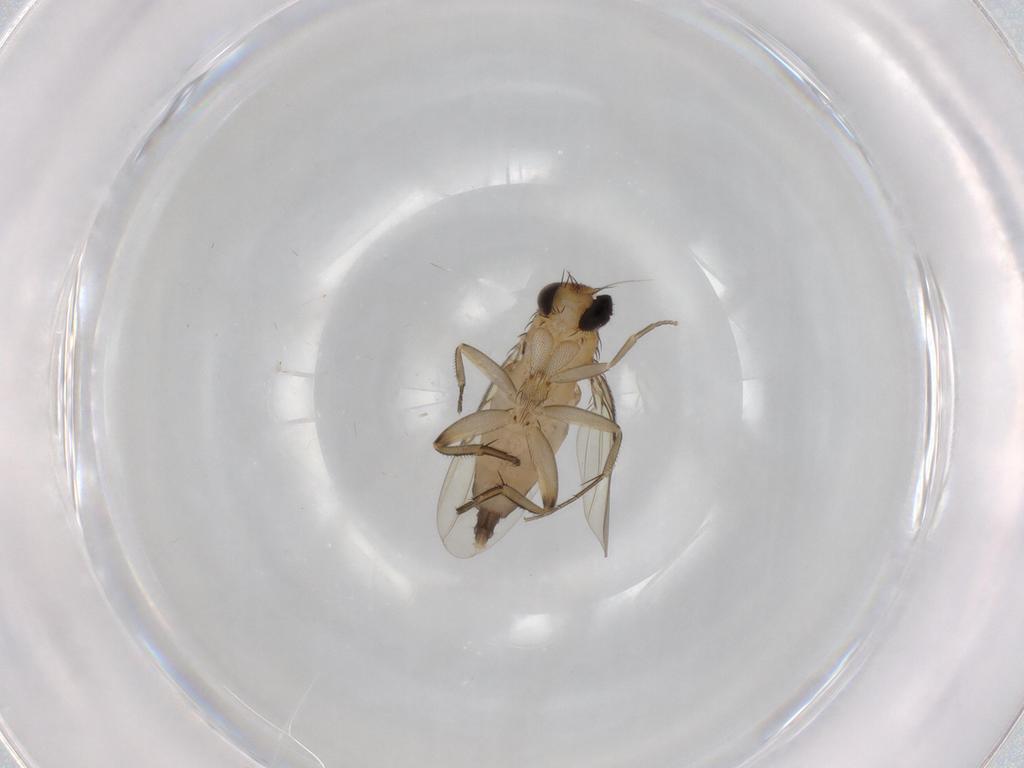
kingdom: Animalia
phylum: Arthropoda
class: Insecta
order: Diptera
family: Phoridae
